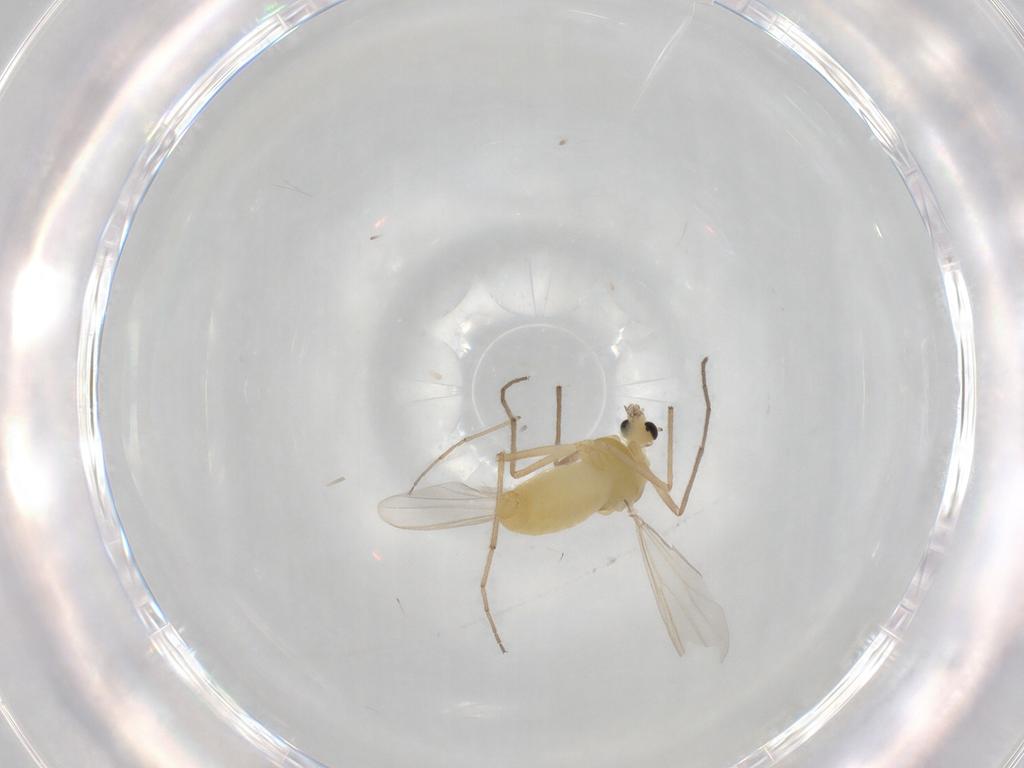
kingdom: Animalia
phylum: Arthropoda
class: Insecta
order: Diptera
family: Chironomidae
